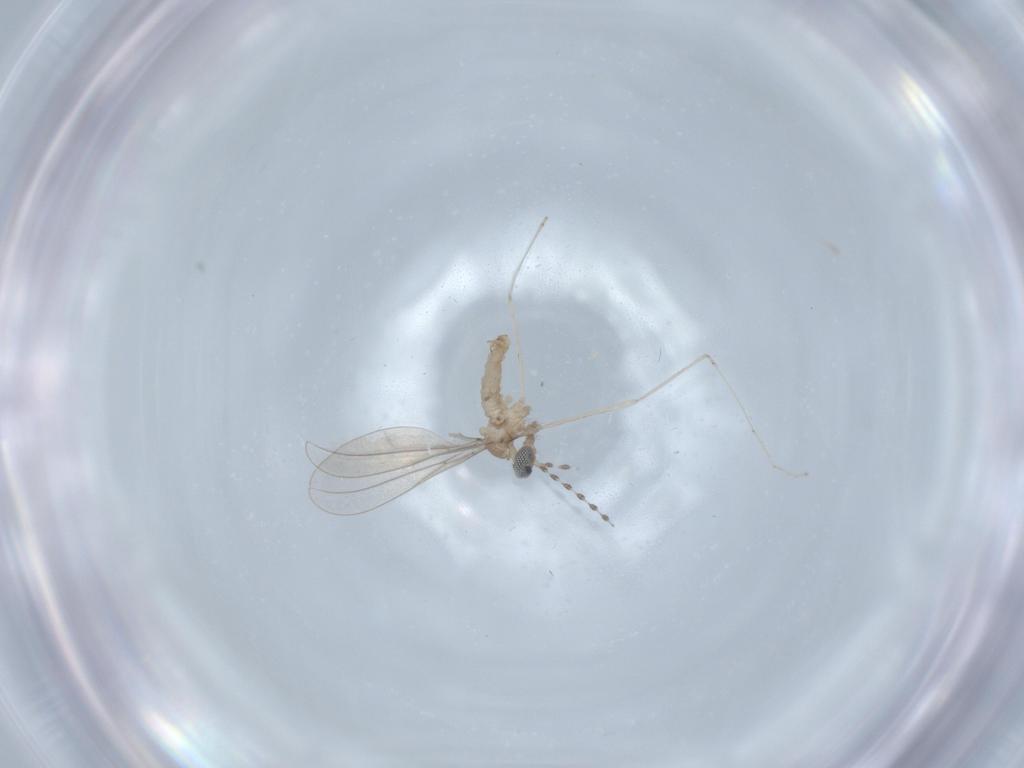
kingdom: Animalia
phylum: Arthropoda
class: Insecta
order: Diptera
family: Cecidomyiidae
